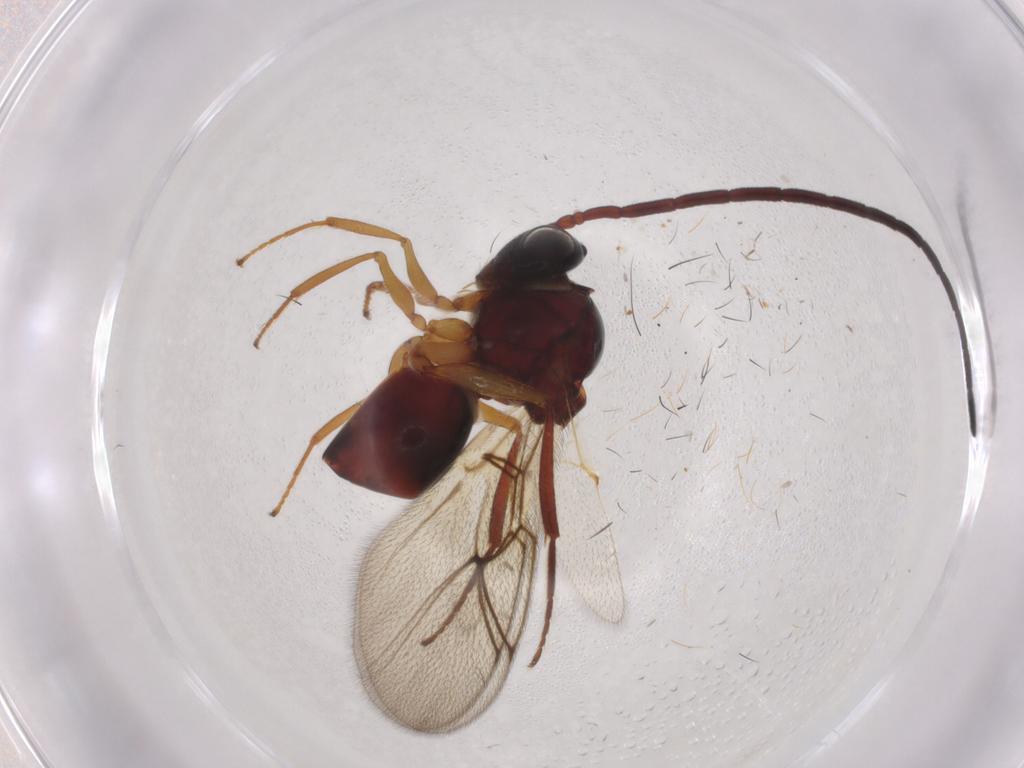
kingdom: Animalia
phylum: Arthropoda
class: Insecta
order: Hymenoptera
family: Figitidae
